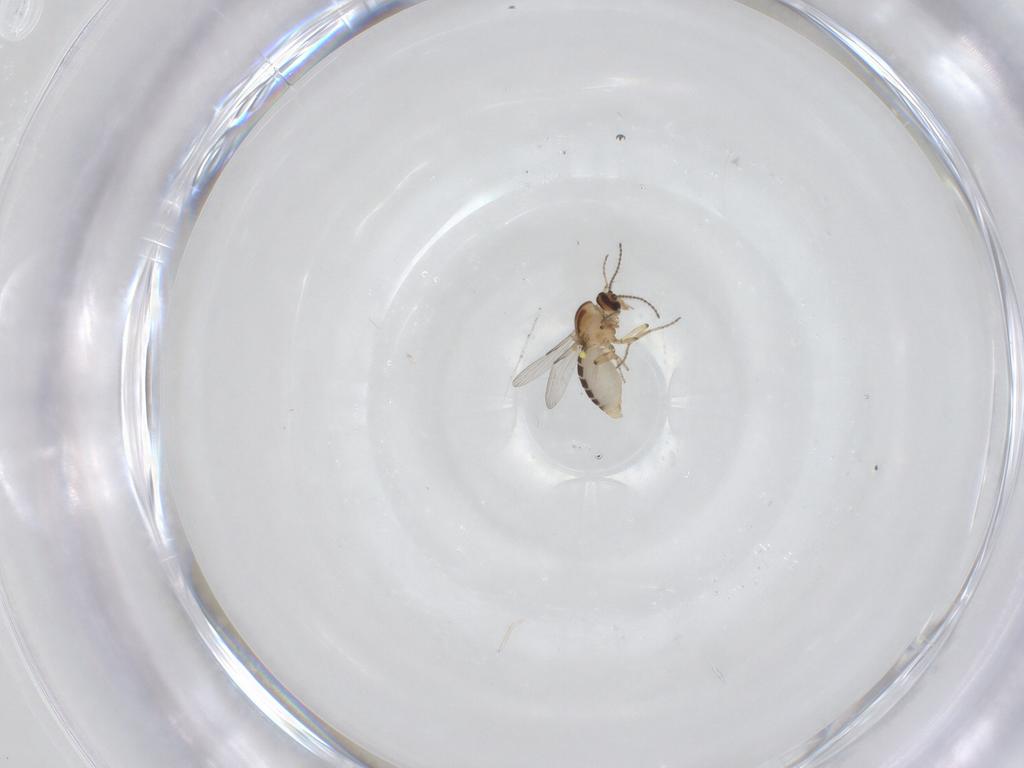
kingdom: Animalia
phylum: Arthropoda
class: Insecta
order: Diptera
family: Ceratopogonidae
